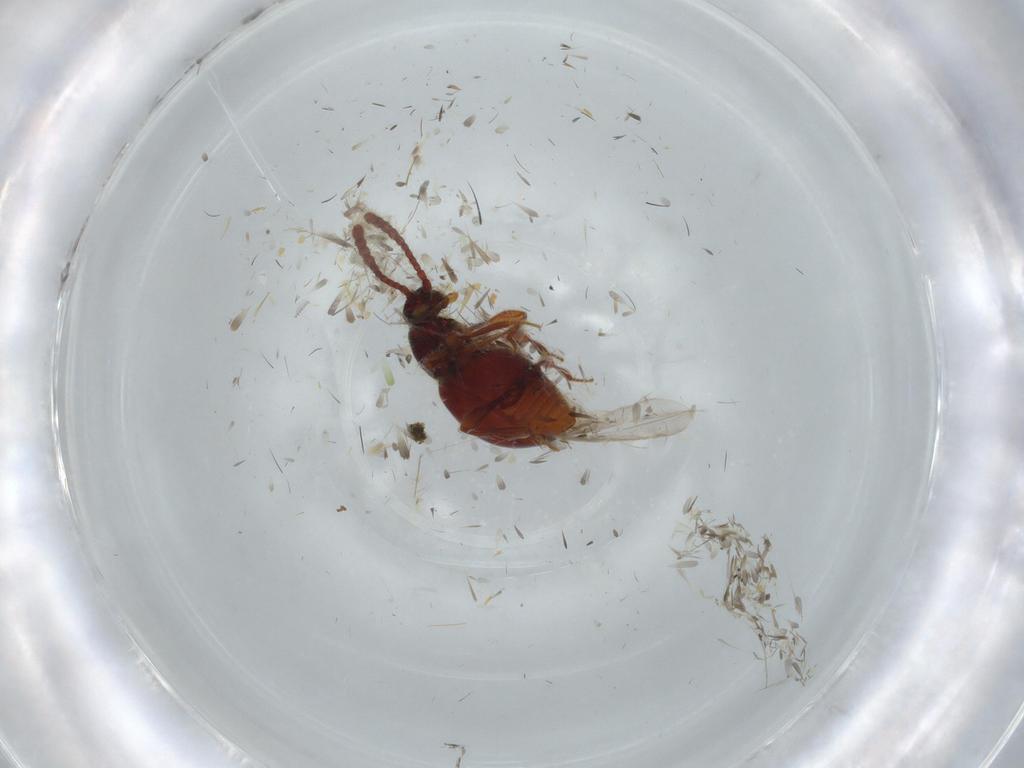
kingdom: Animalia
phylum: Arthropoda
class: Insecta
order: Coleoptera
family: Staphylinidae
